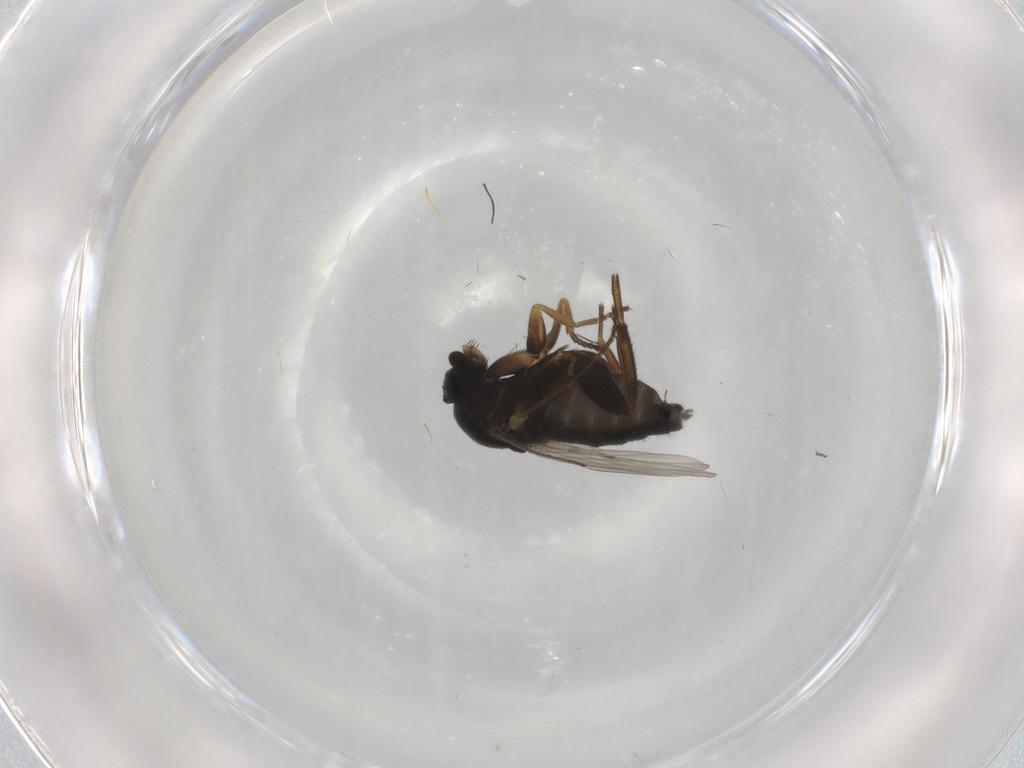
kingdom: Animalia
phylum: Arthropoda
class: Insecta
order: Diptera
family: Phoridae
